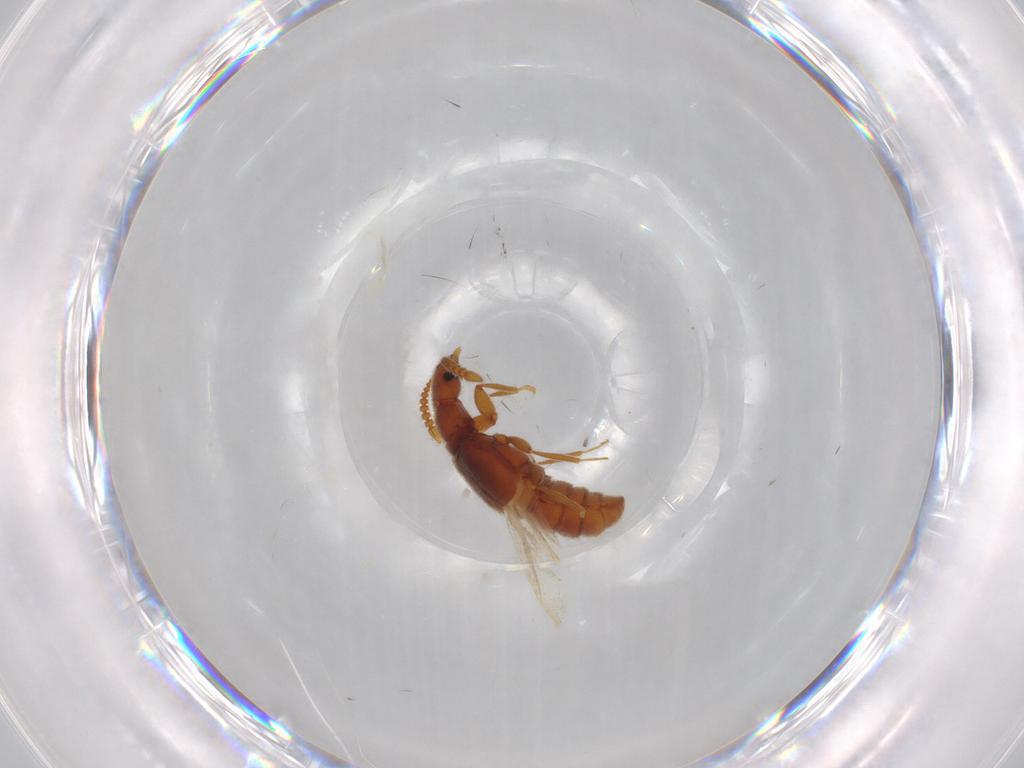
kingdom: Animalia
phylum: Arthropoda
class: Insecta
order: Coleoptera
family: Mordellidae
